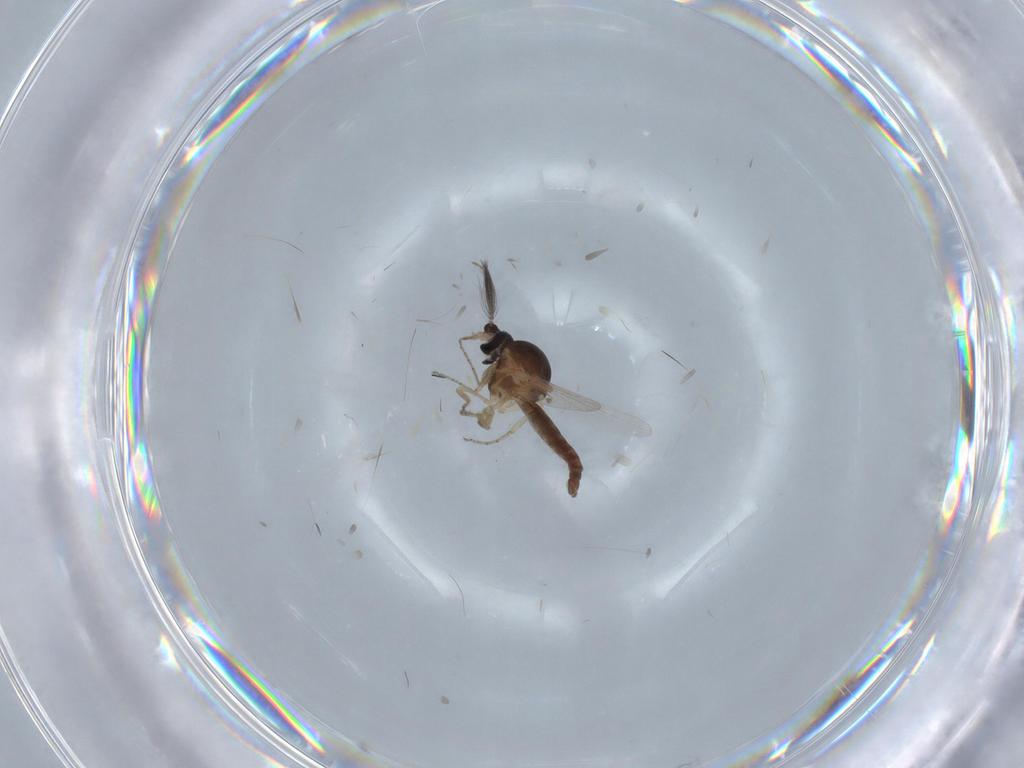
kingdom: Animalia
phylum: Arthropoda
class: Insecta
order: Diptera
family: Ceratopogonidae
